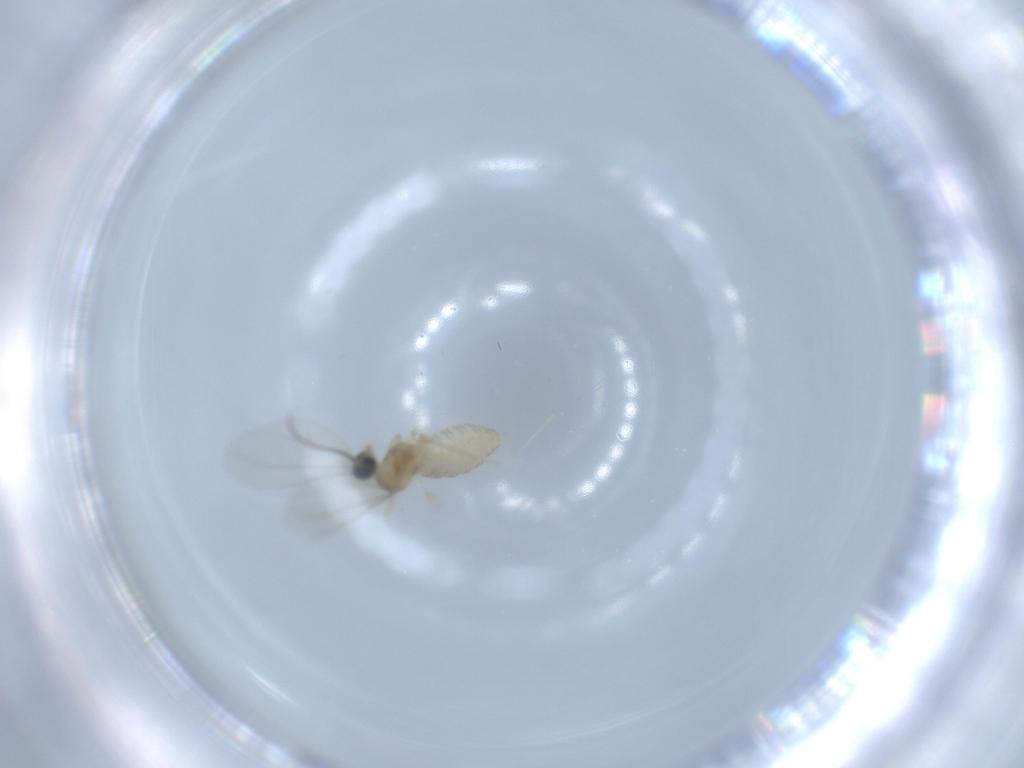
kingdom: Animalia
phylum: Arthropoda
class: Insecta
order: Diptera
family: Cecidomyiidae
